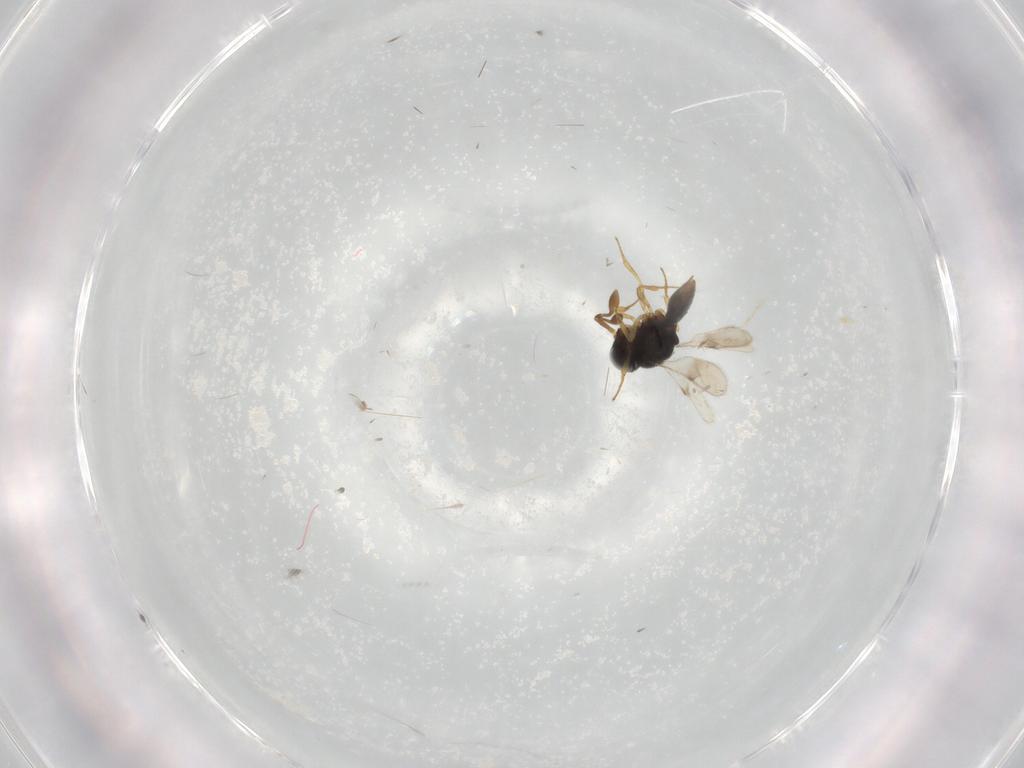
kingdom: Animalia
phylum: Arthropoda
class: Insecta
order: Hymenoptera
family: Scelionidae
